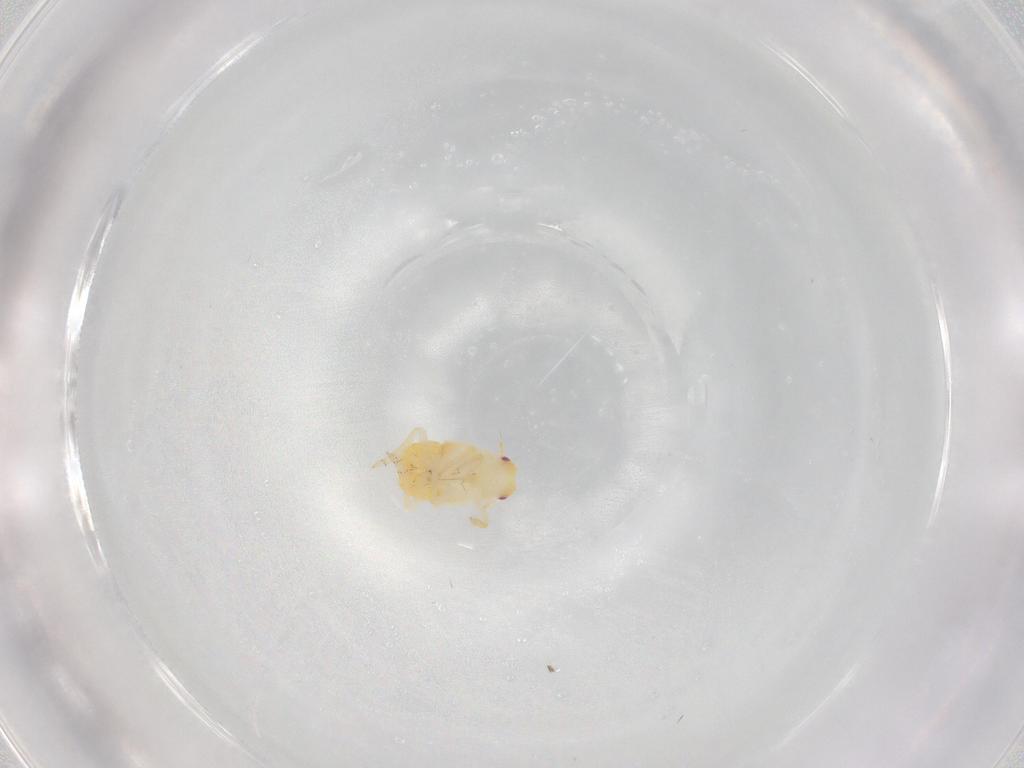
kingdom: Animalia
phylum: Arthropoda
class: Insecta
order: Hemiptera
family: Flatidae
